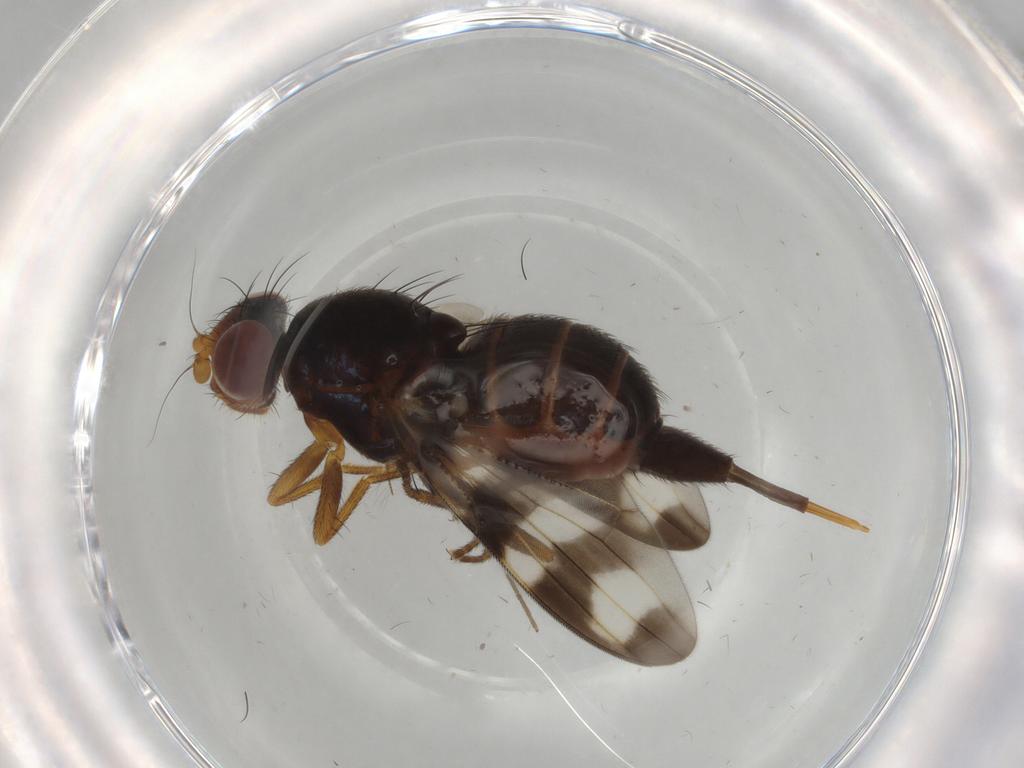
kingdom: Animalia
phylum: Arthropoda
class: Insecta
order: Diptera
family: Ulidiidae
